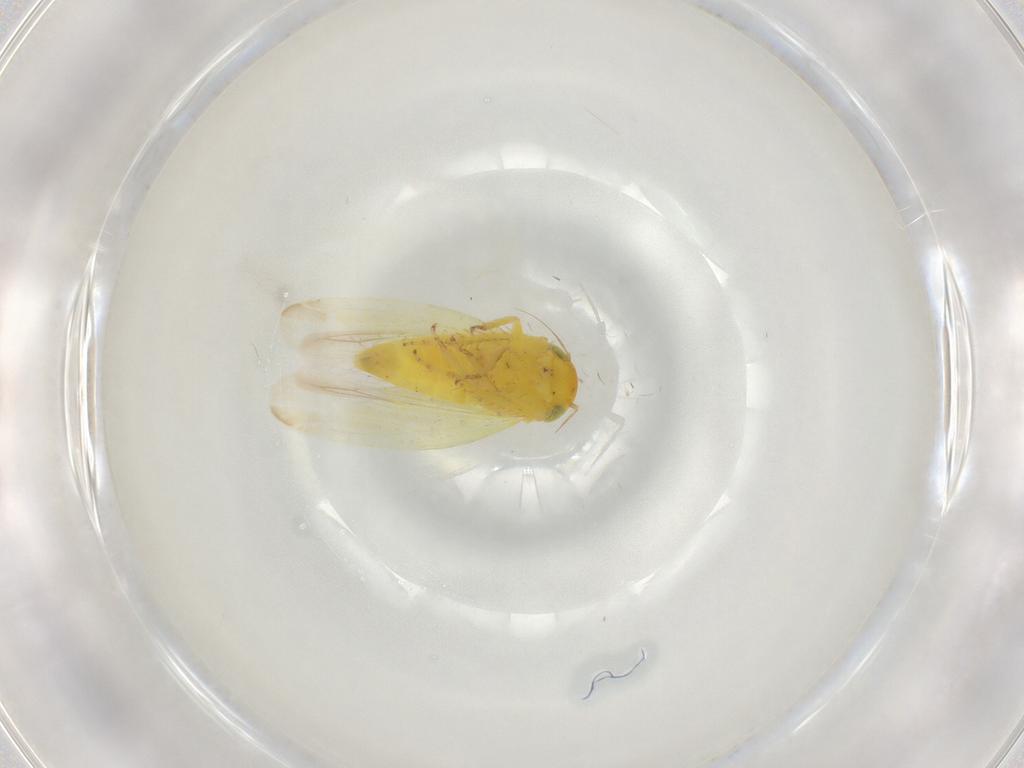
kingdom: Animalia
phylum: Arthropoda
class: Insecta
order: Hemiptera
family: Cicadellidae
